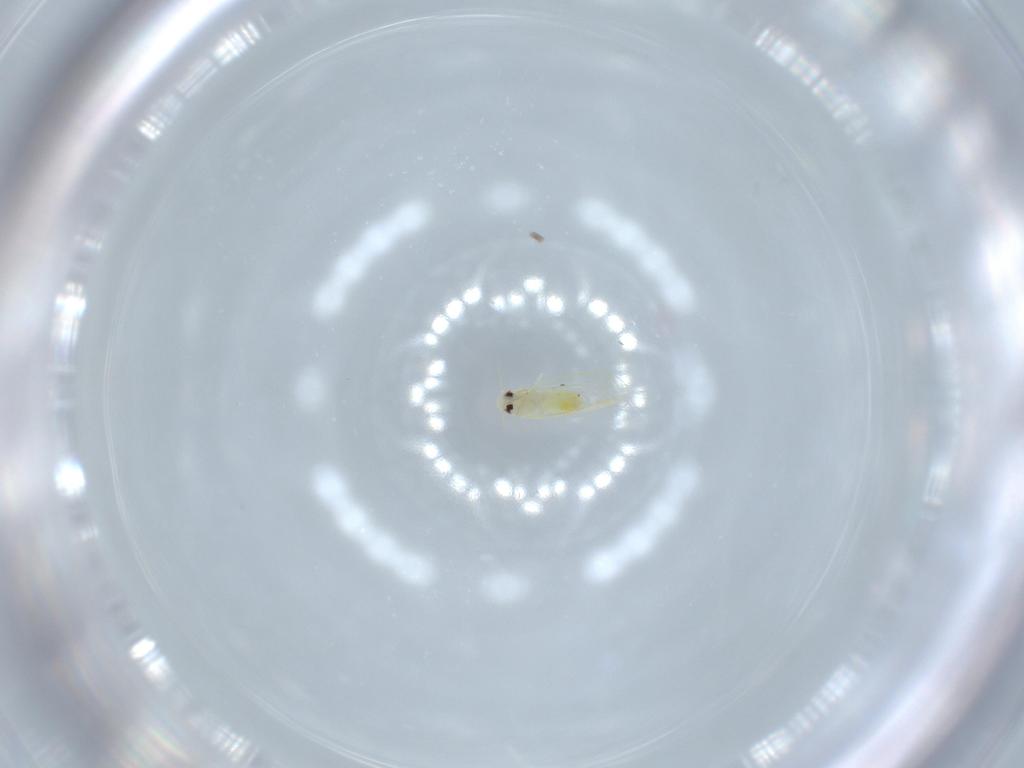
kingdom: Animalia
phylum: Arthropoda
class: Insecta
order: Hemiptera
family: Aleyrodidae
